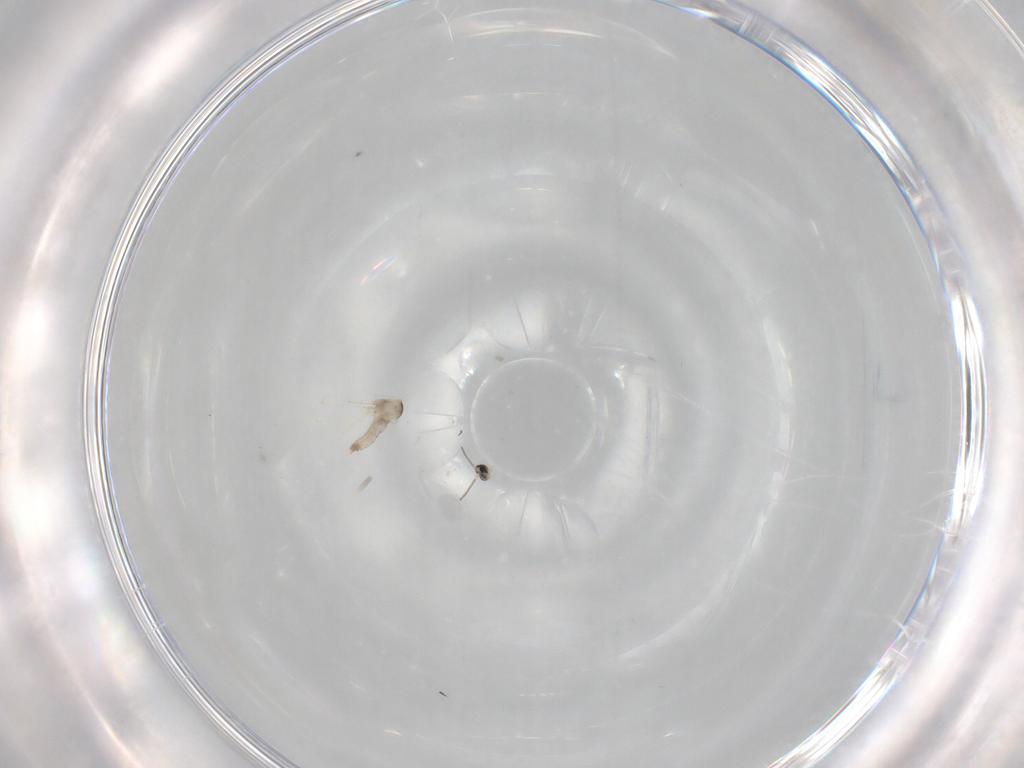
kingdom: Animalia
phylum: Arthropoda
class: Insecta
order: Diptera
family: Cecidomyiidae
